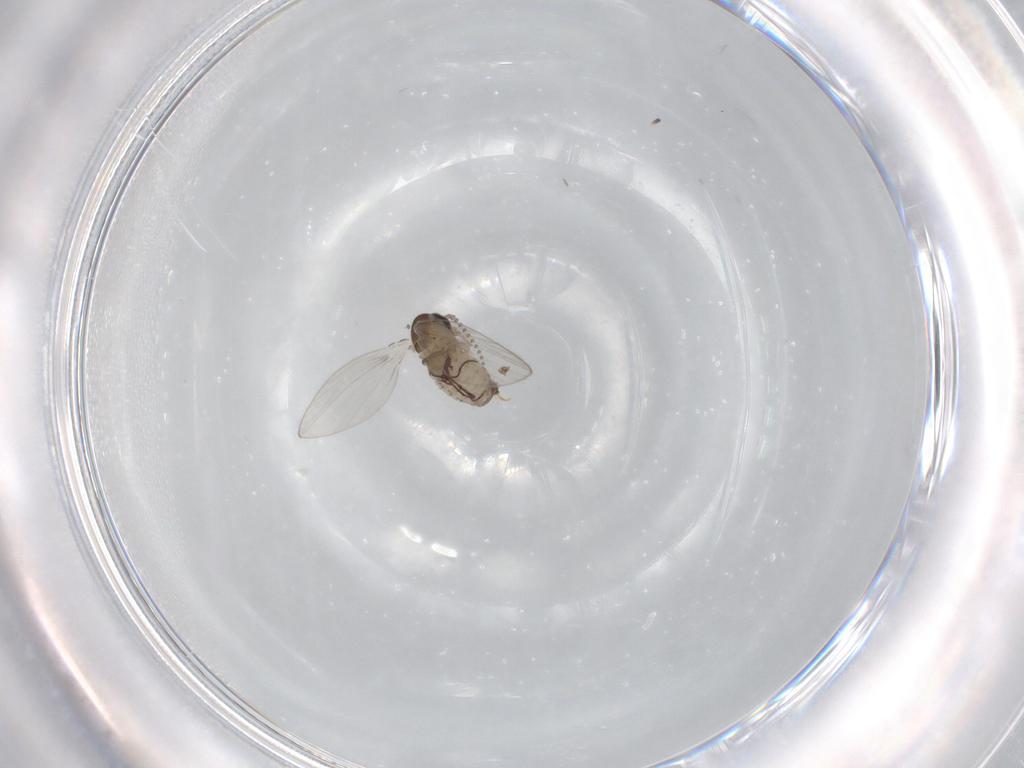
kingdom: Animalia
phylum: Arthropoda
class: Insecta
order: Diptera
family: Psychodidae
